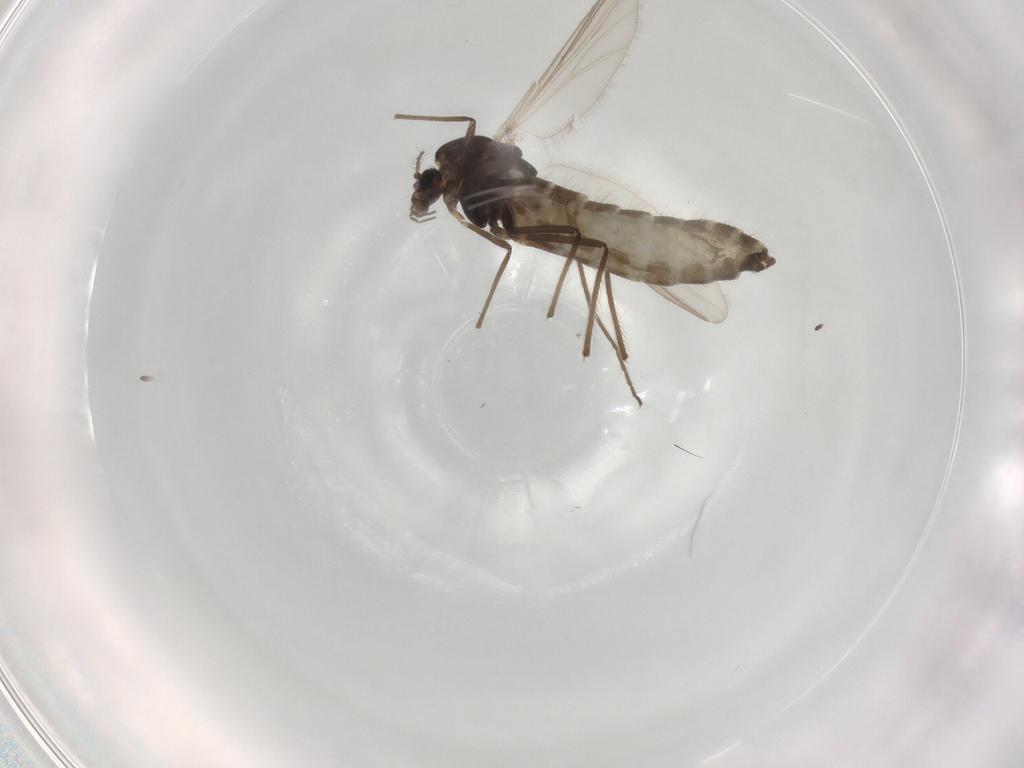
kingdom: Animalia
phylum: Arthropoda
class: Insecta
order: Diptera
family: Chironomidae
